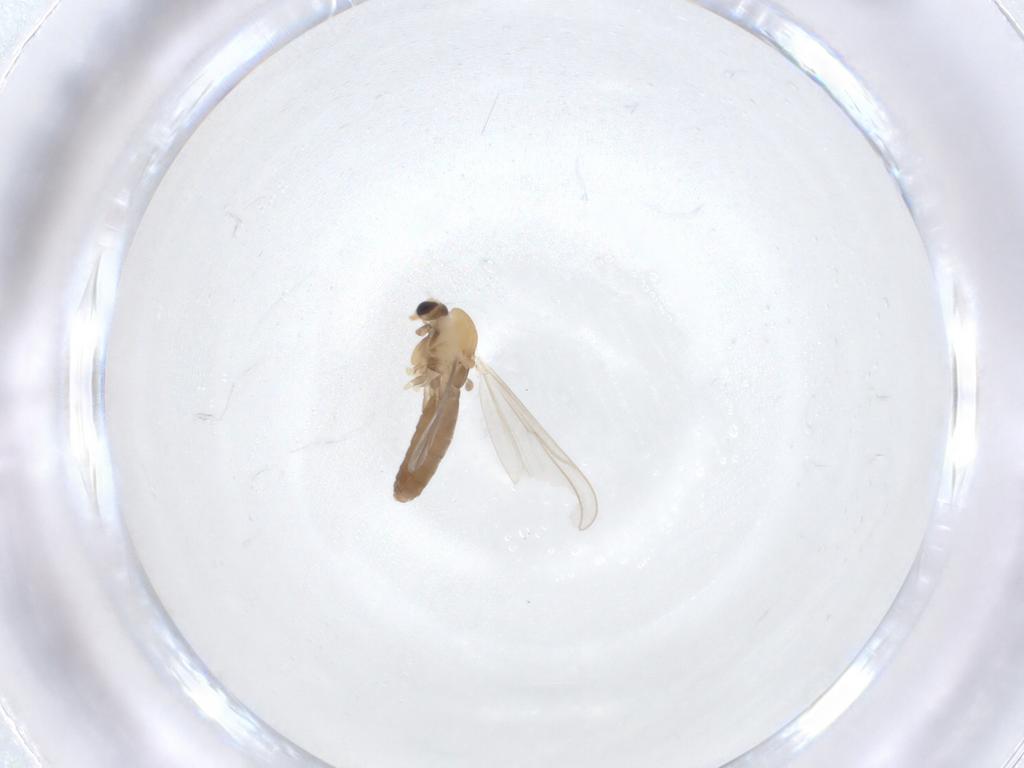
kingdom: Animalia
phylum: Arthropoda
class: Insecta
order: Diptera
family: Chironomidae
